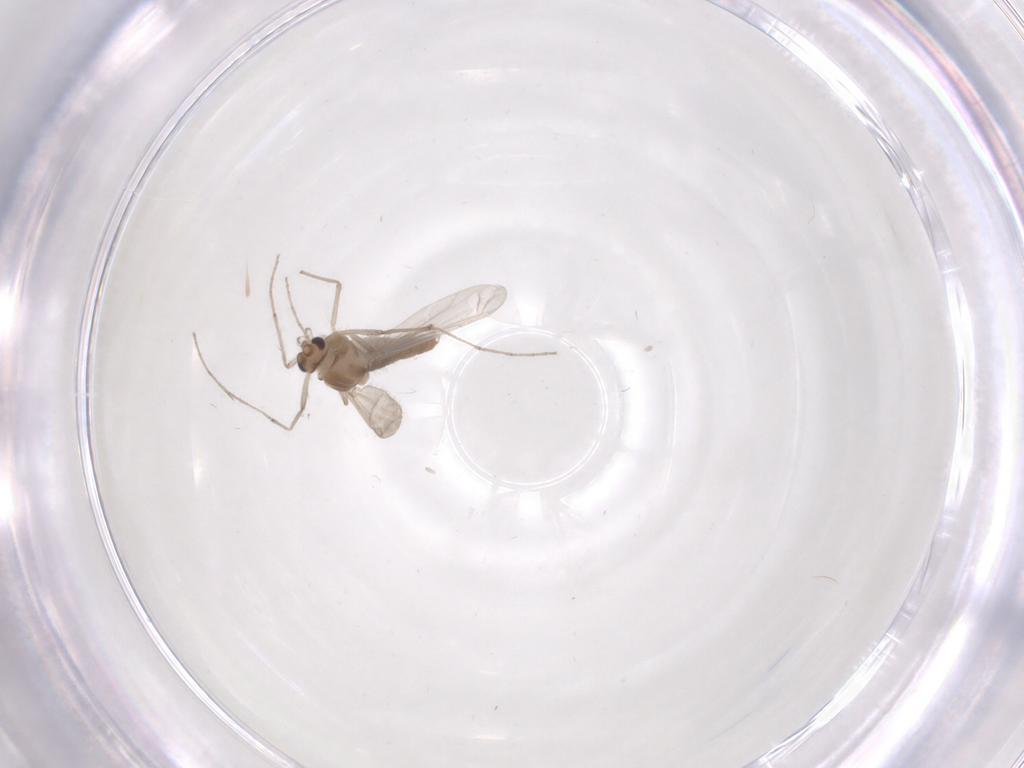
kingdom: Animalia
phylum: Arthropoda
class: Insecta
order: Diptera
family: Chironomidae
